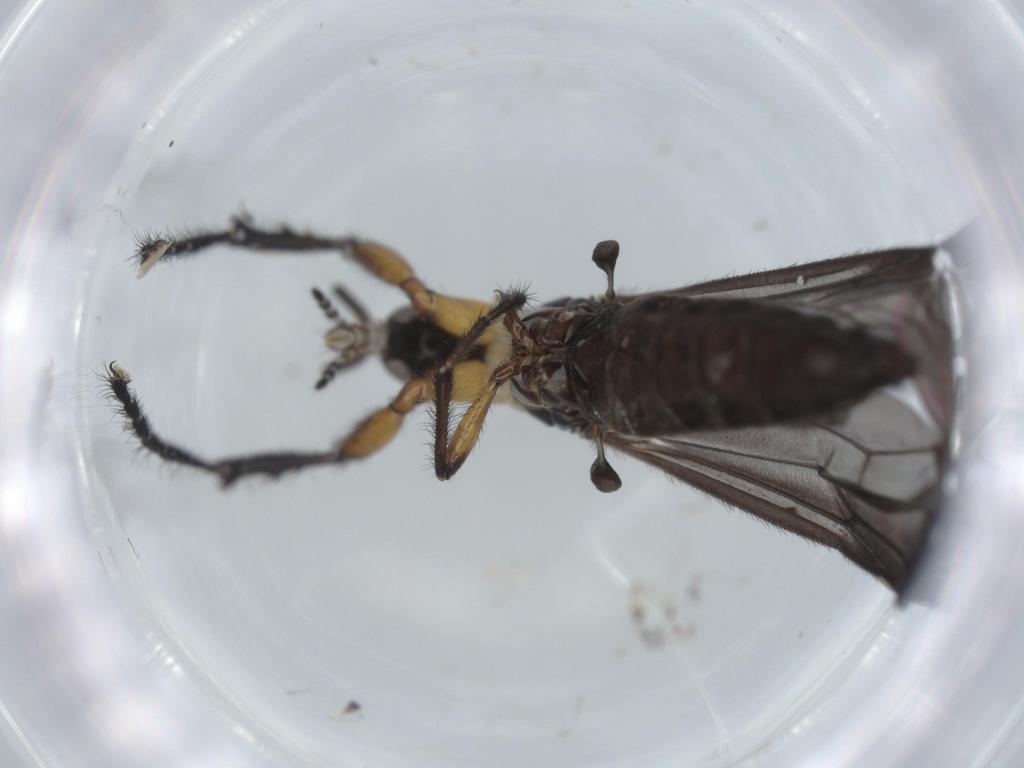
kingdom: Animalia
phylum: Arthropoda
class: Insecta
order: Diptera
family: Bibionidae
